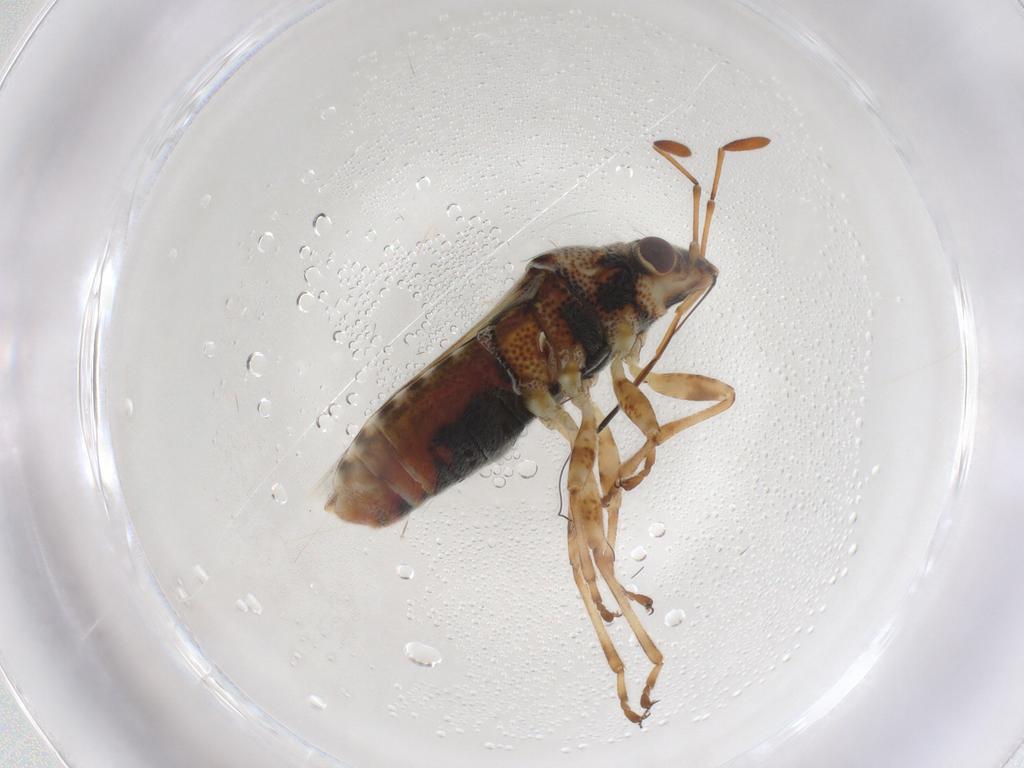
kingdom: Animalia
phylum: Arthropoda
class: Insecta
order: Hemiptera
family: Lygaeidae
